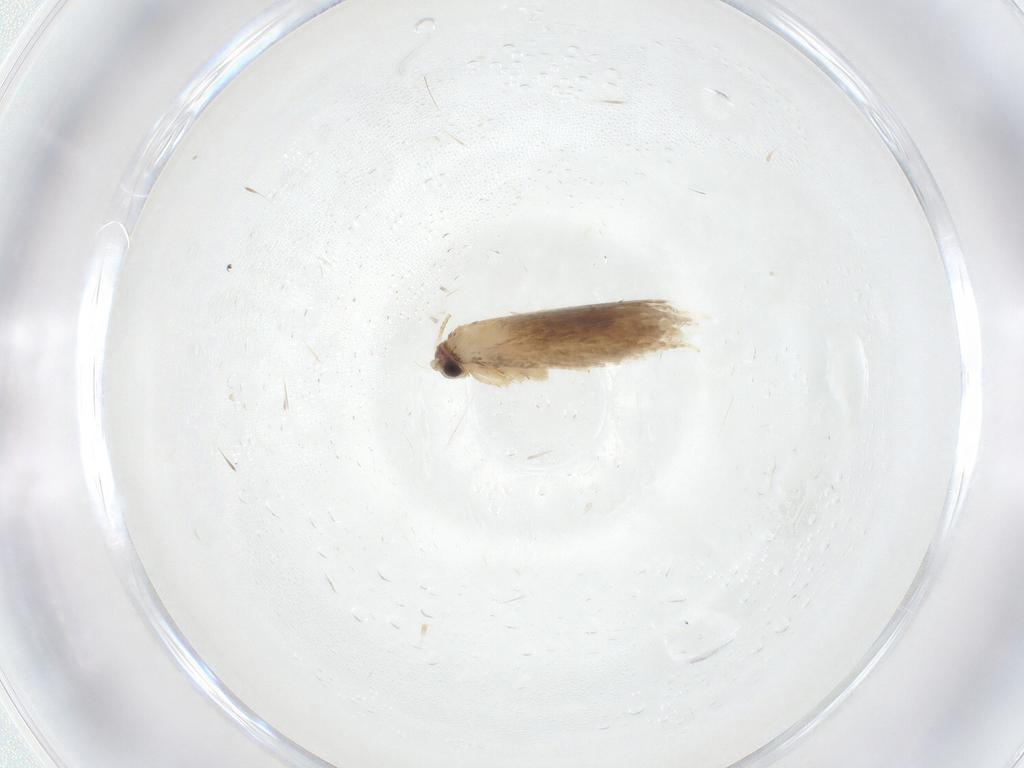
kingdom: Animalia
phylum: Arthropoda
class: Insecta
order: Lepidoptera
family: Tineidae
